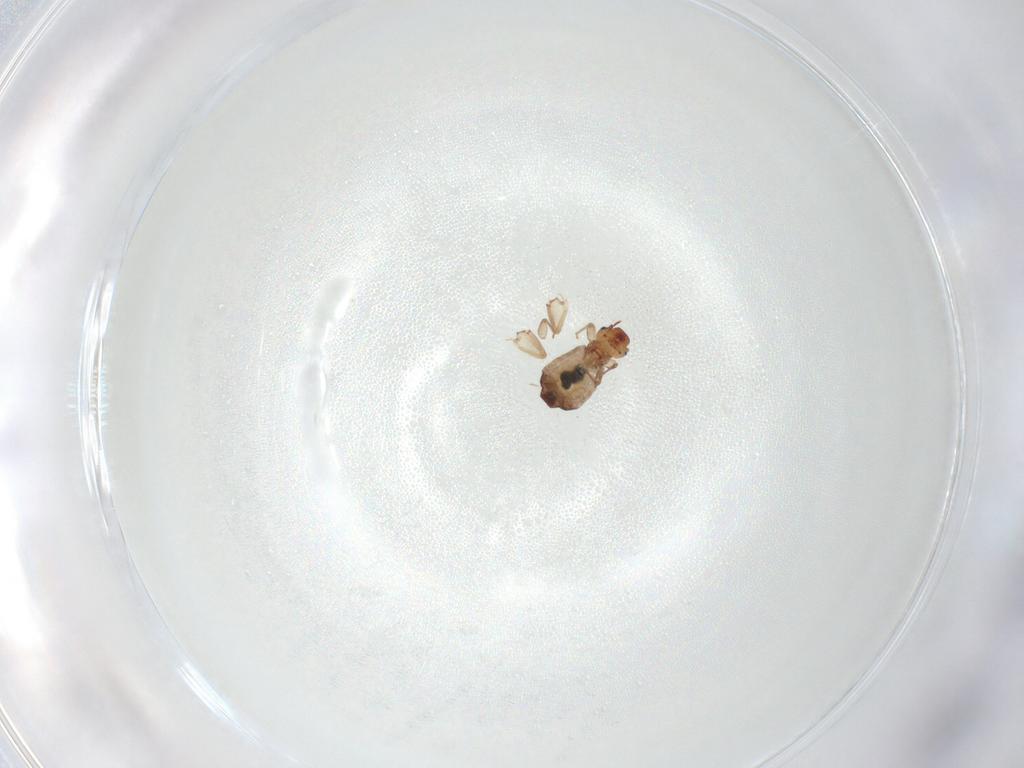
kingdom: Animalia
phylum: Arthropoda
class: Insecta
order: Psocodea
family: Liposcelididae
